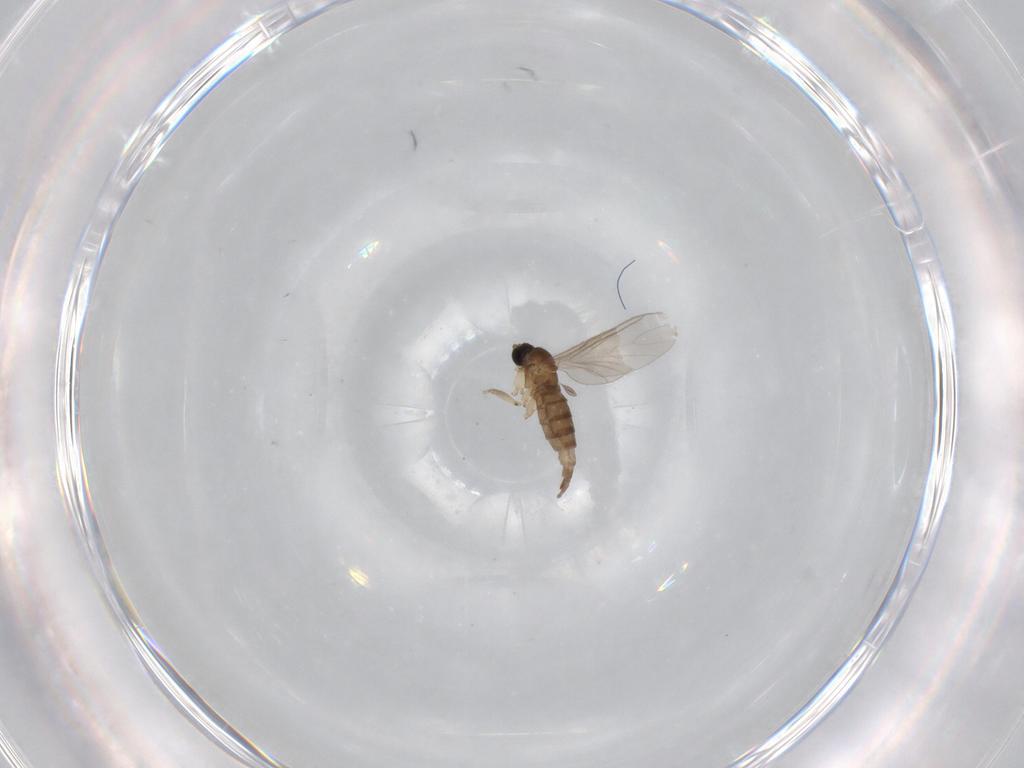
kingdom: Animalia
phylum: Arthropoda
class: Insecta
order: Diptera
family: Sciaridae
